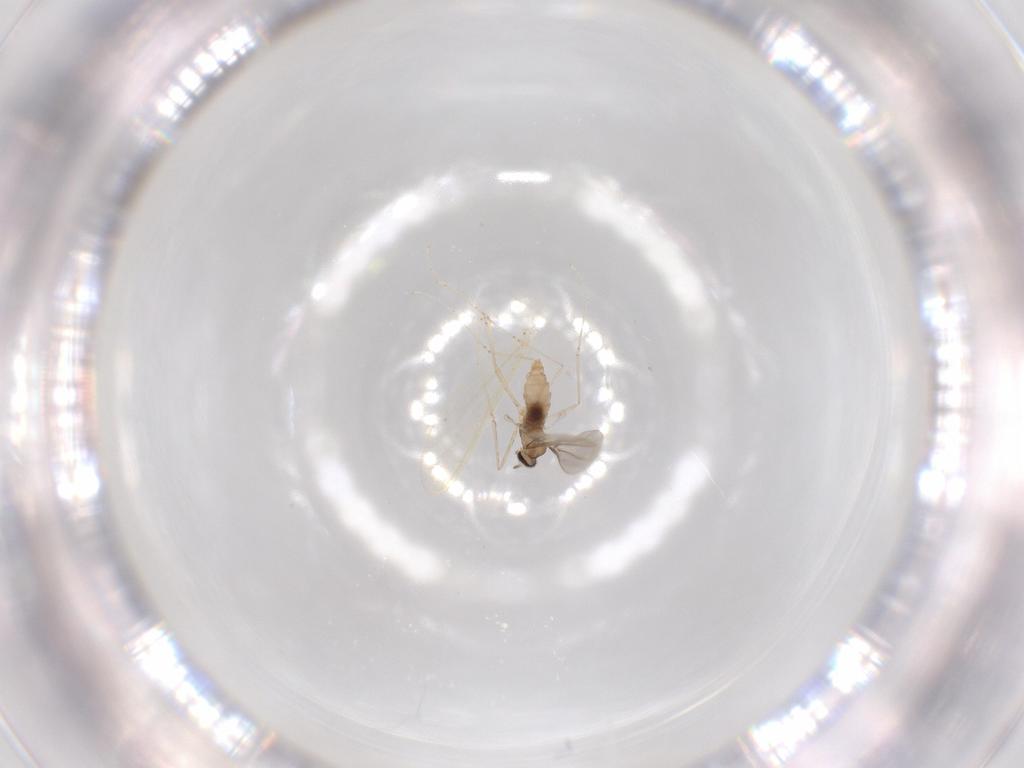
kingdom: Animalia
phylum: Arthropoda
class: Insecta
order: Diptera
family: Cecidomyiidae
